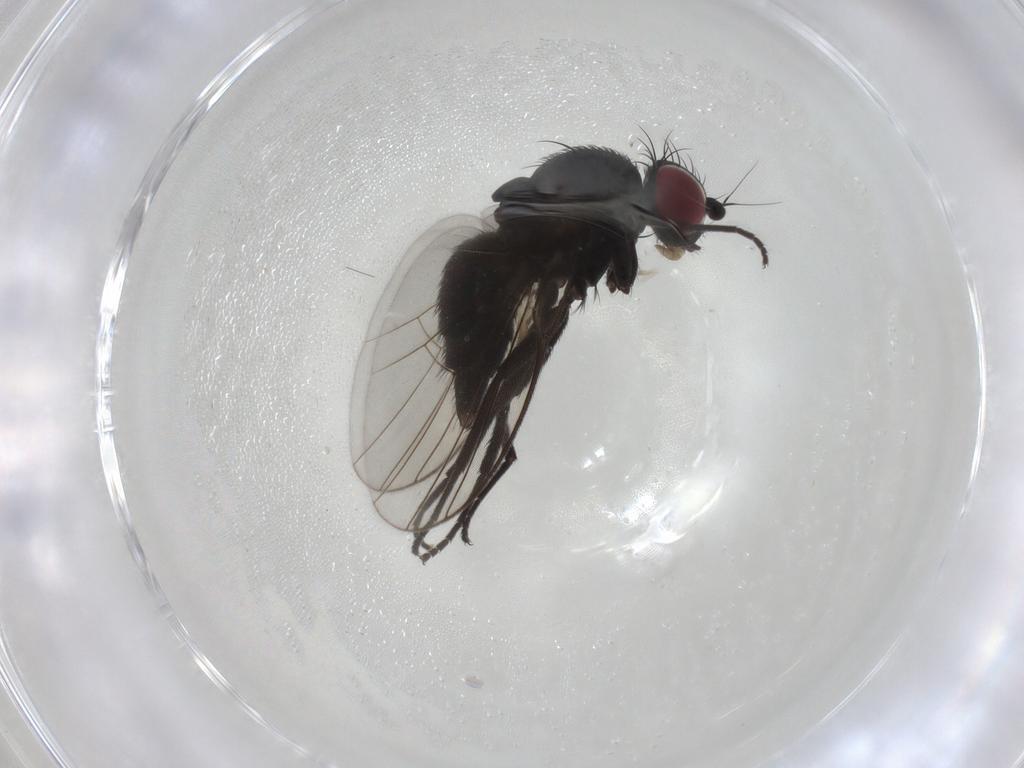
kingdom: Animalia
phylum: Arthropoda
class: Insecta
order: Diptera
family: Agromyzidae
